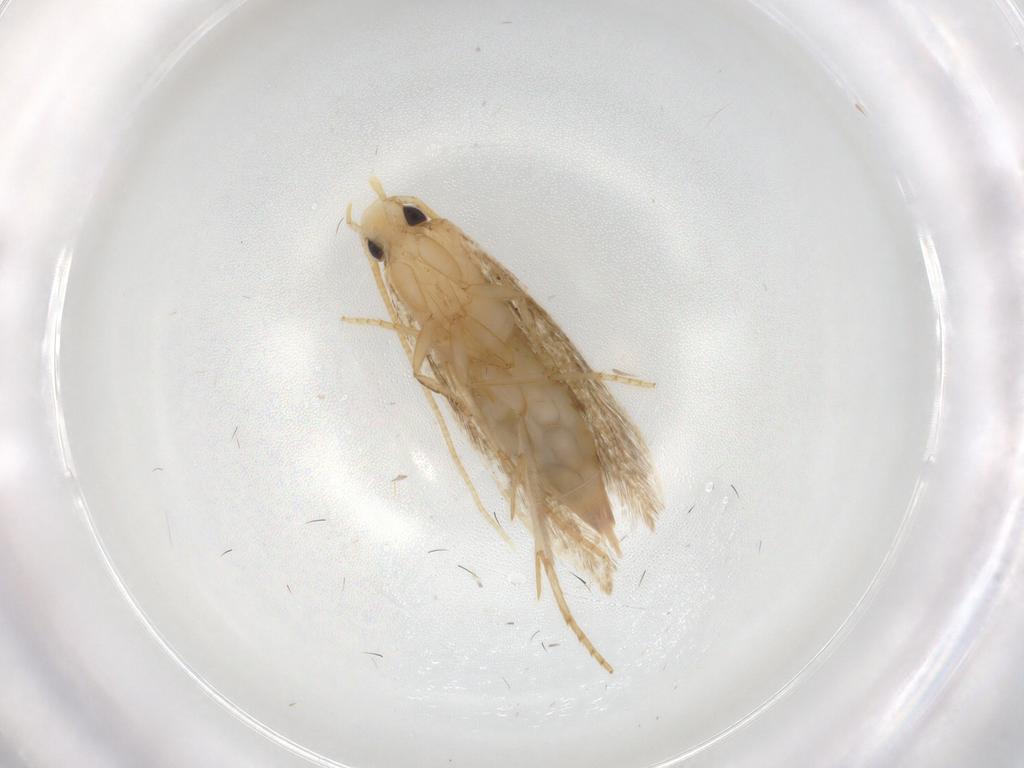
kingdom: Animalia
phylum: Arthropoda
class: Insecta
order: Lepidoptera
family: Tineidae
